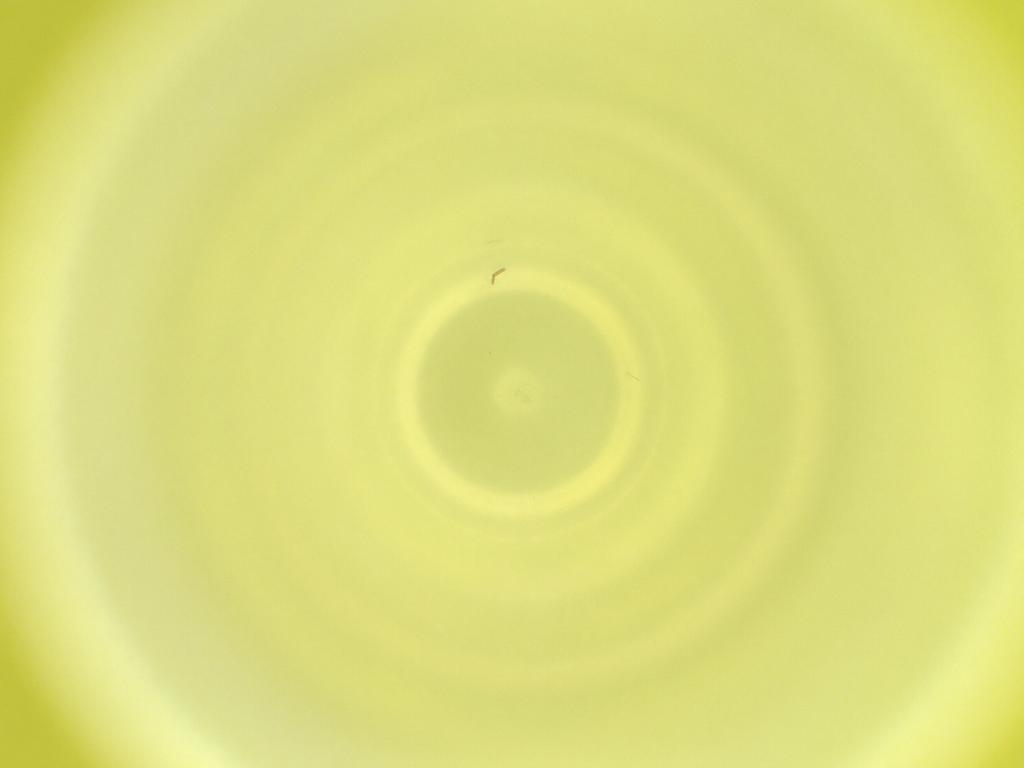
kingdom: Animalia
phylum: Arthropoda
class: Insecta
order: Diptera
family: Cecidomyiidae
